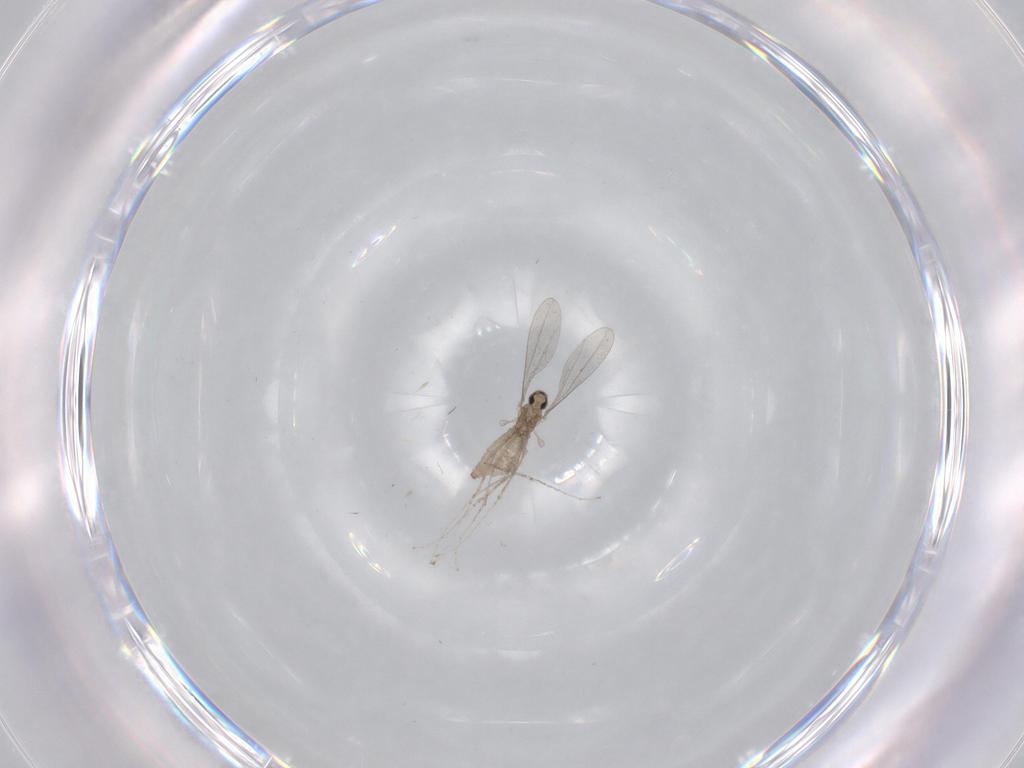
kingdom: Animalia
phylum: Arthropoda
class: Insecta
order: Diptera
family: Cecidomyiidae
